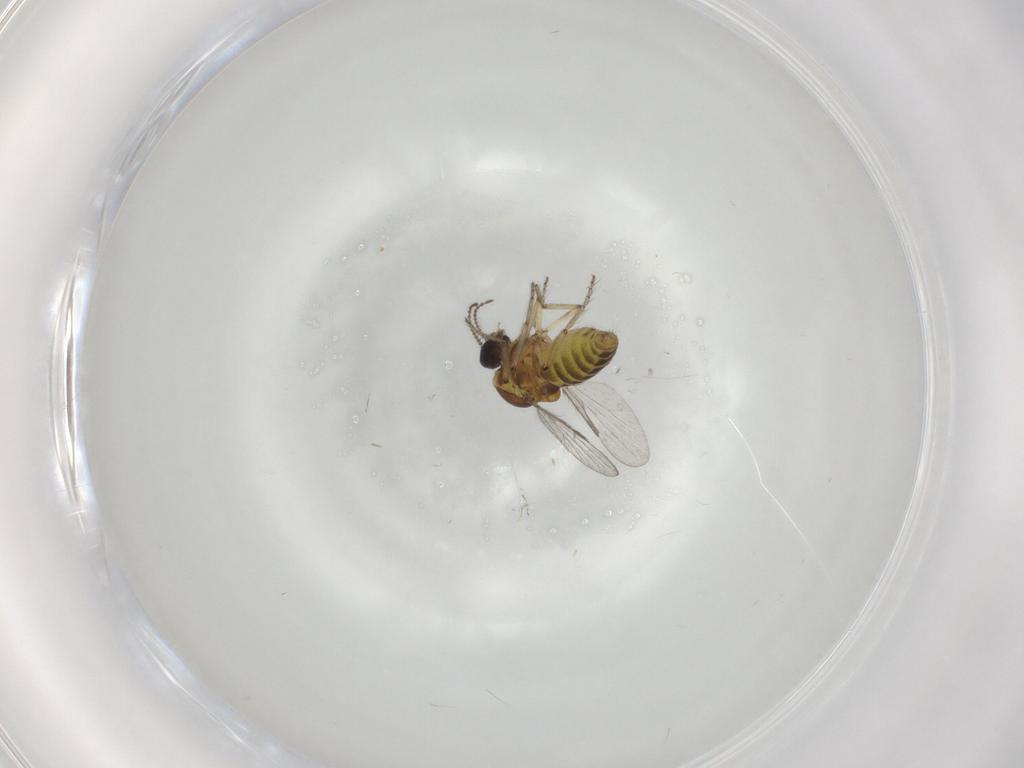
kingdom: Animalia
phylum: Arthropoda
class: Insecta
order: Diptera
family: Ceratopogonidae
